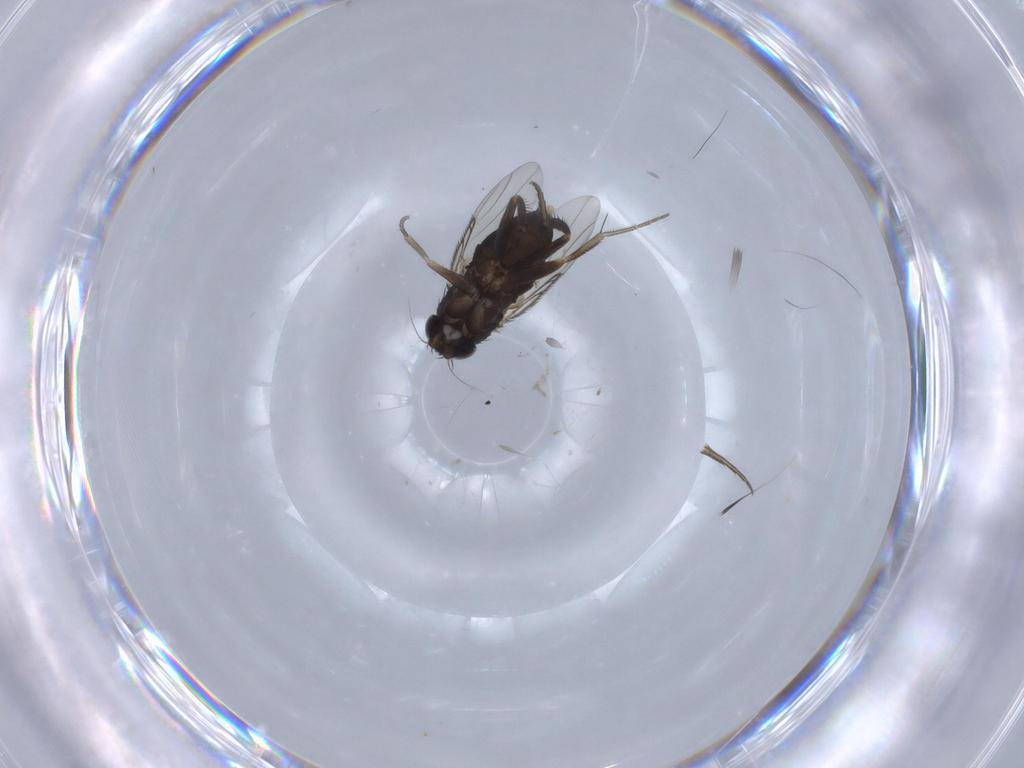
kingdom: Animalia
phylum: Arthropoda
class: Insecta
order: Diptera
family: Phoridae
